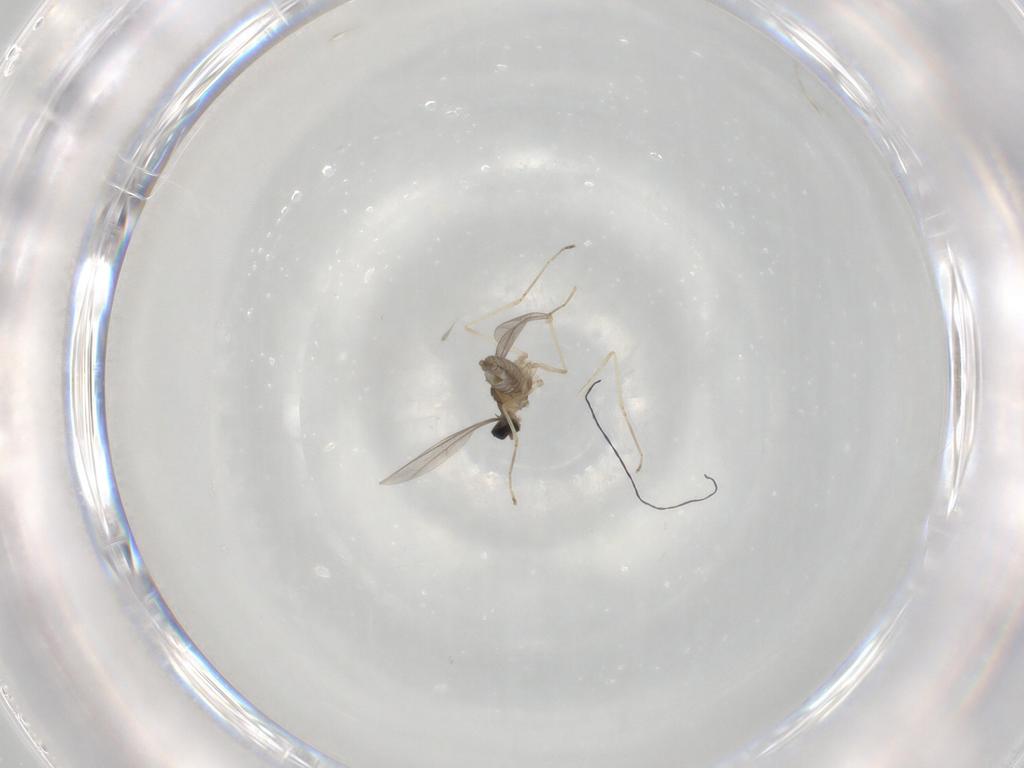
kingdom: Animalia
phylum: Arthropoda
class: Insecta
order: Diptera
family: Cecidomyiidae
